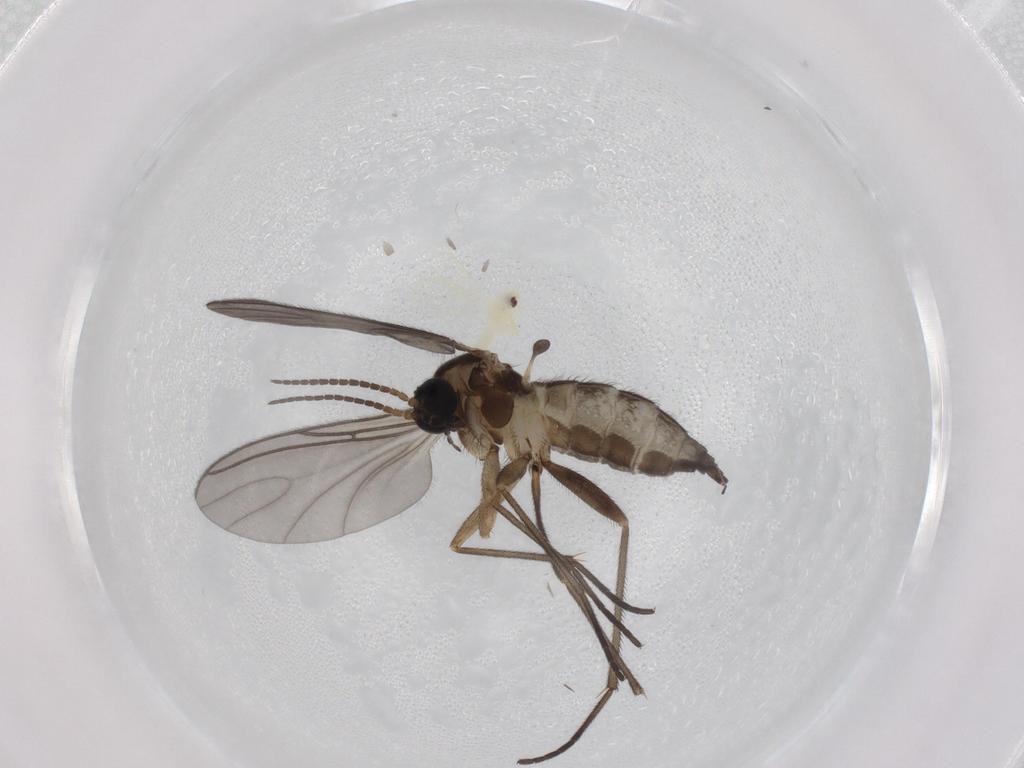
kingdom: Animalia
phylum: Arthropoda
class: Insecta
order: Diptera
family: Sciaridae
